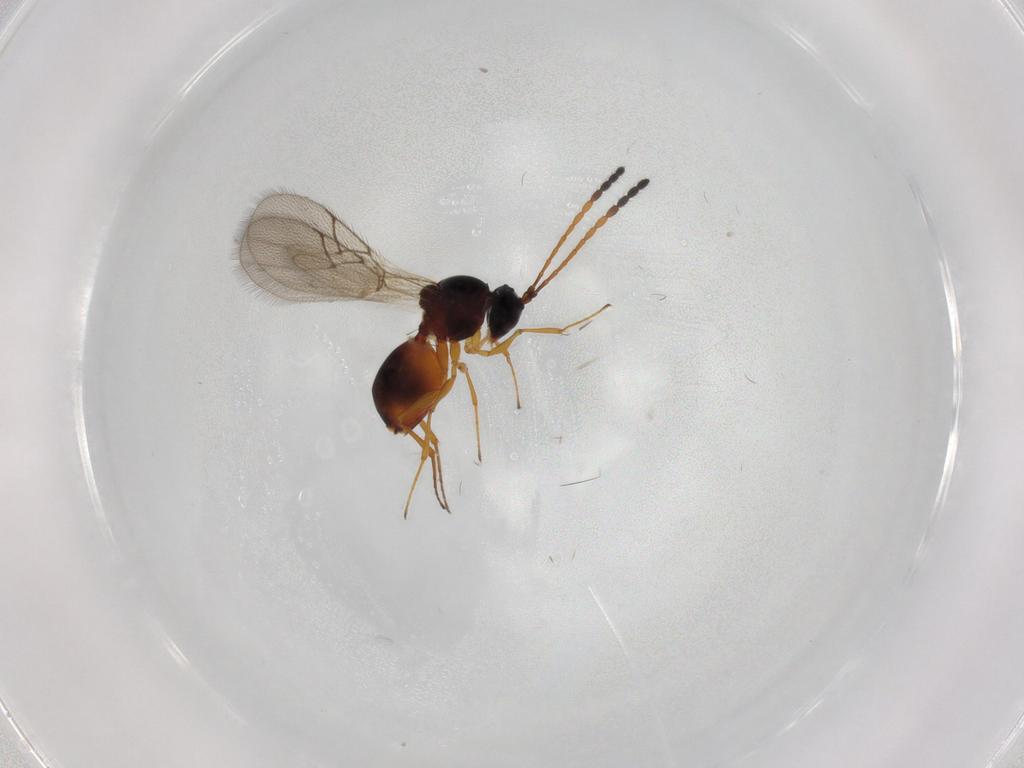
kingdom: Animalia
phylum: Arthropoda
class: Insecta
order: Hymenoptera
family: Figitidae
